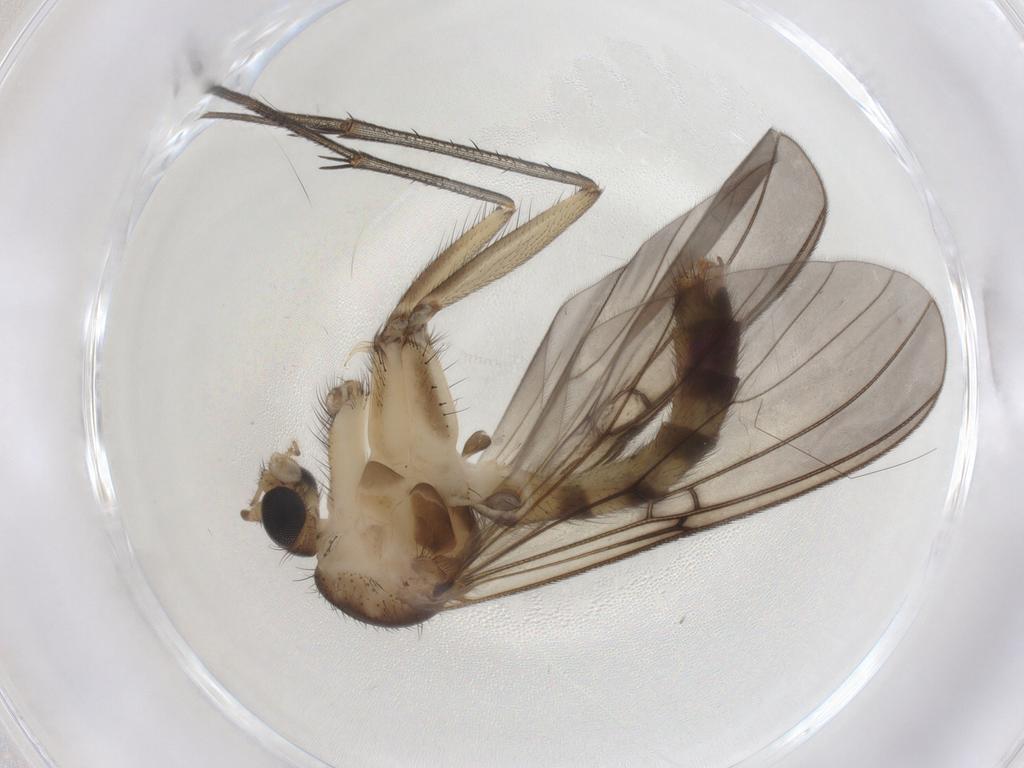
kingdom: Animalia
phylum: Arthropoda
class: Insecta
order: Diptera
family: Mycetophilidae
